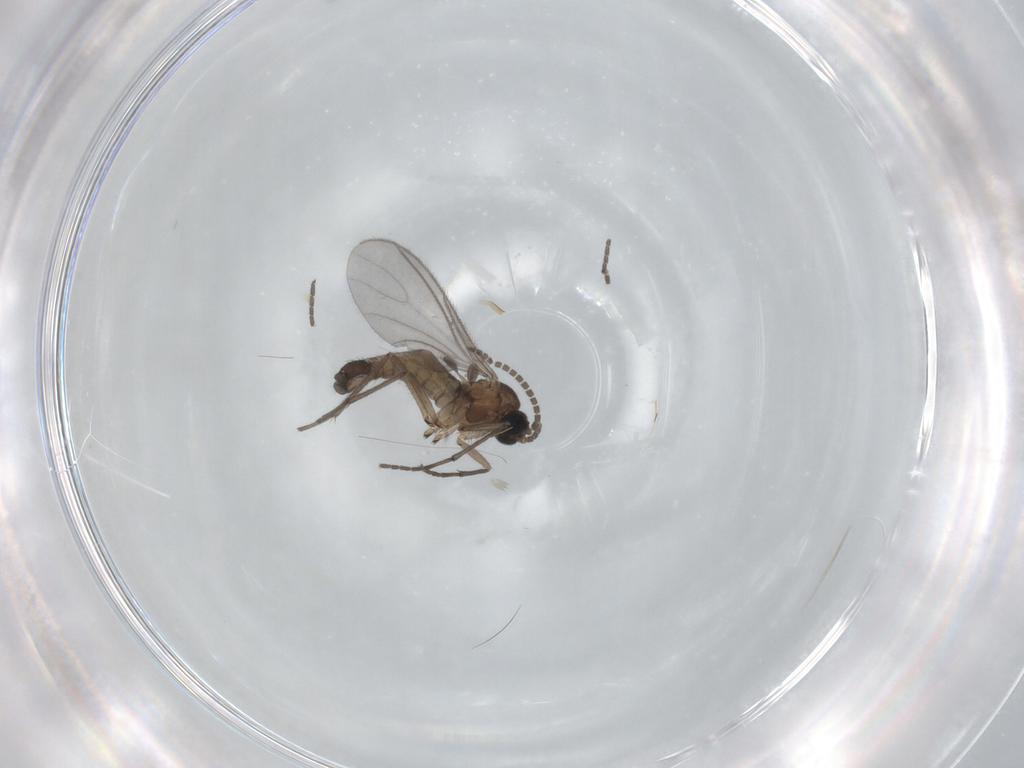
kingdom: Animalia
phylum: Arthropoda
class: Insecta
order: Diptera
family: Sciaridae
